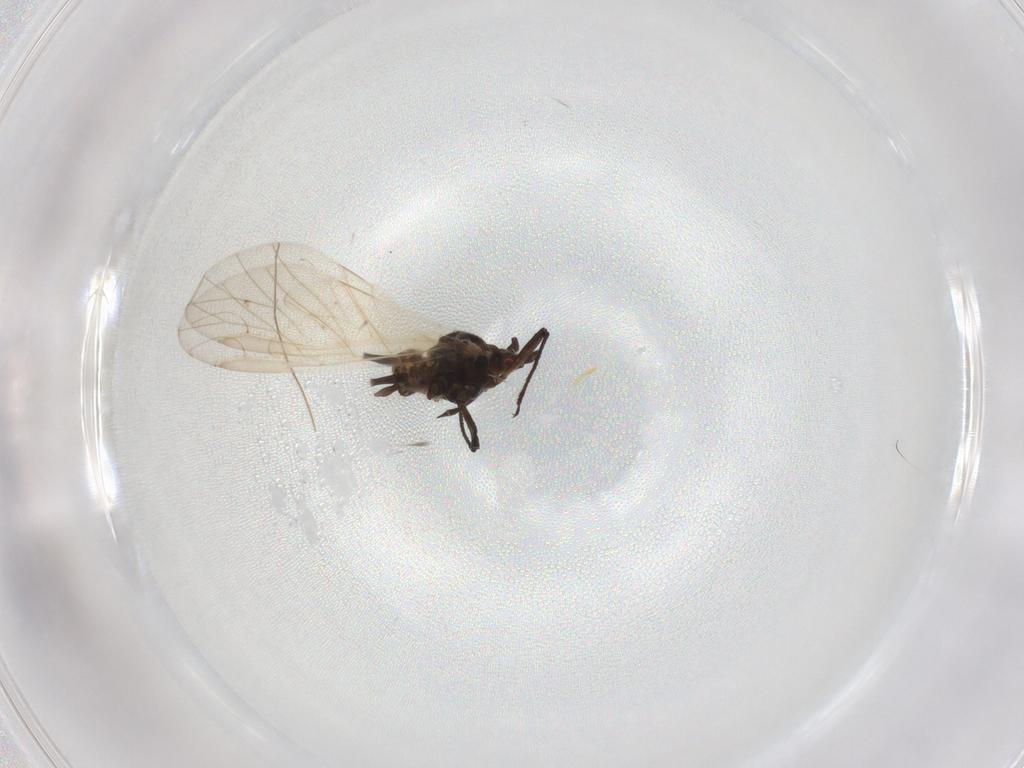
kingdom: Animalia
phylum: Arthropoda
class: Insecta
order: Hemiptera
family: Aphididae
